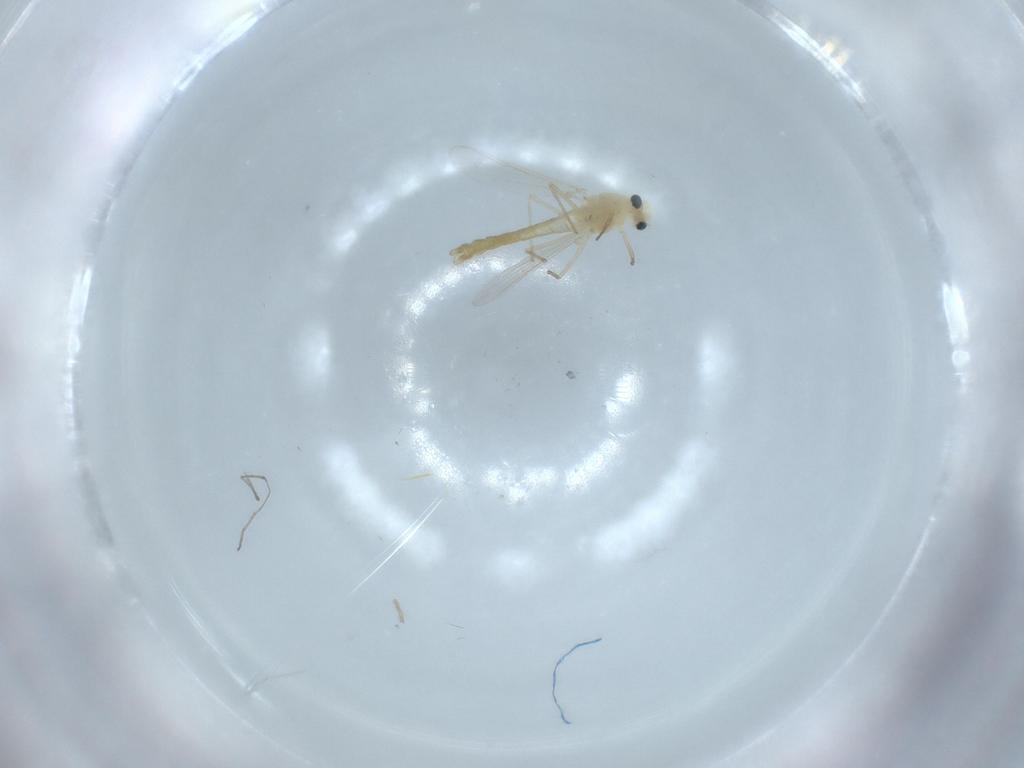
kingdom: Animalia
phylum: Arthropoda
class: Insecta
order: Diptera
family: Chironomidae
